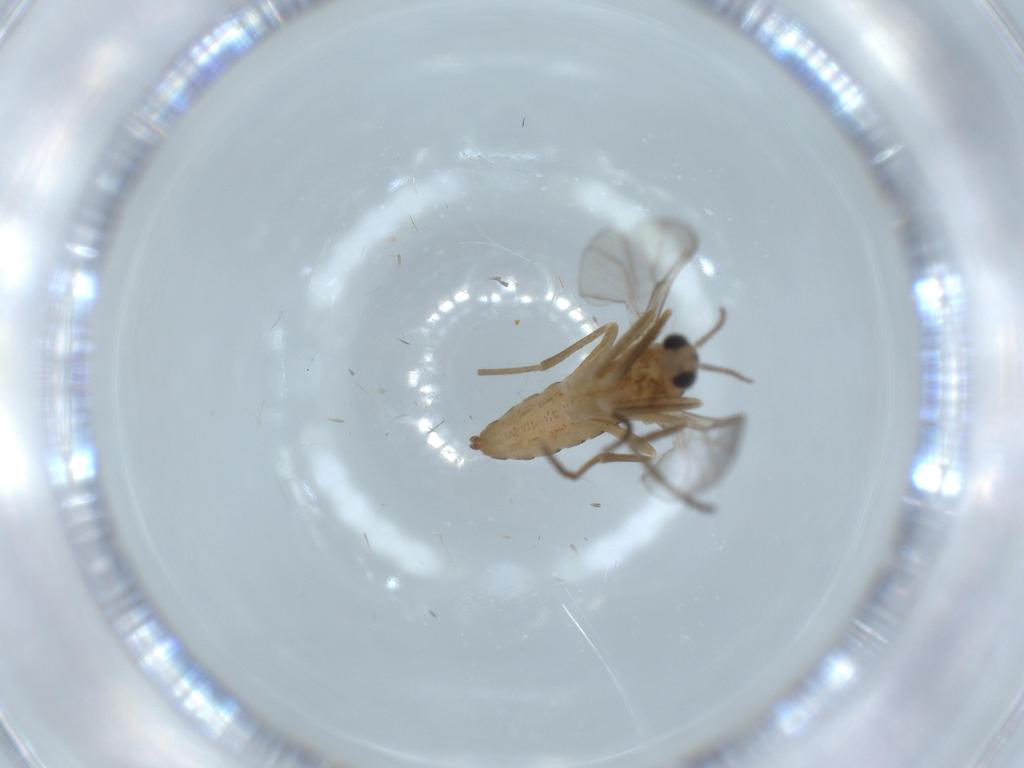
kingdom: Animalia
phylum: Arthropoda
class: Insecta
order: Diptera
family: Cecidomyiidae
